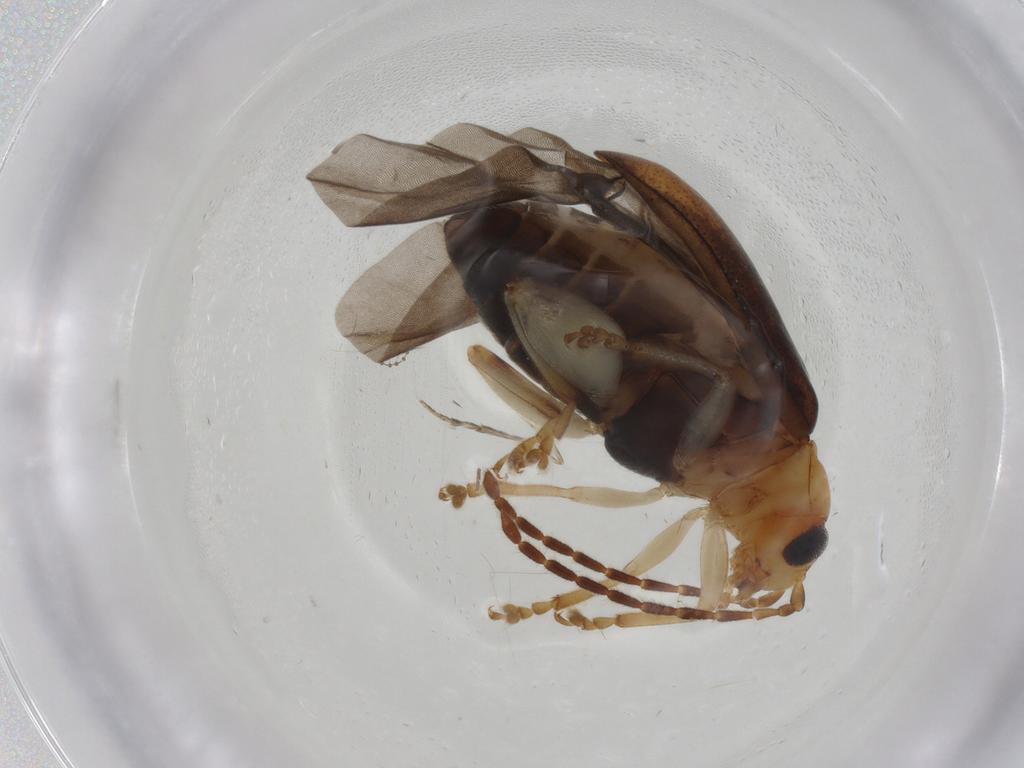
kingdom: Animalia
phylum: Arthropoda
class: Insecta
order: Coleoptera
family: Chrysomelidae
